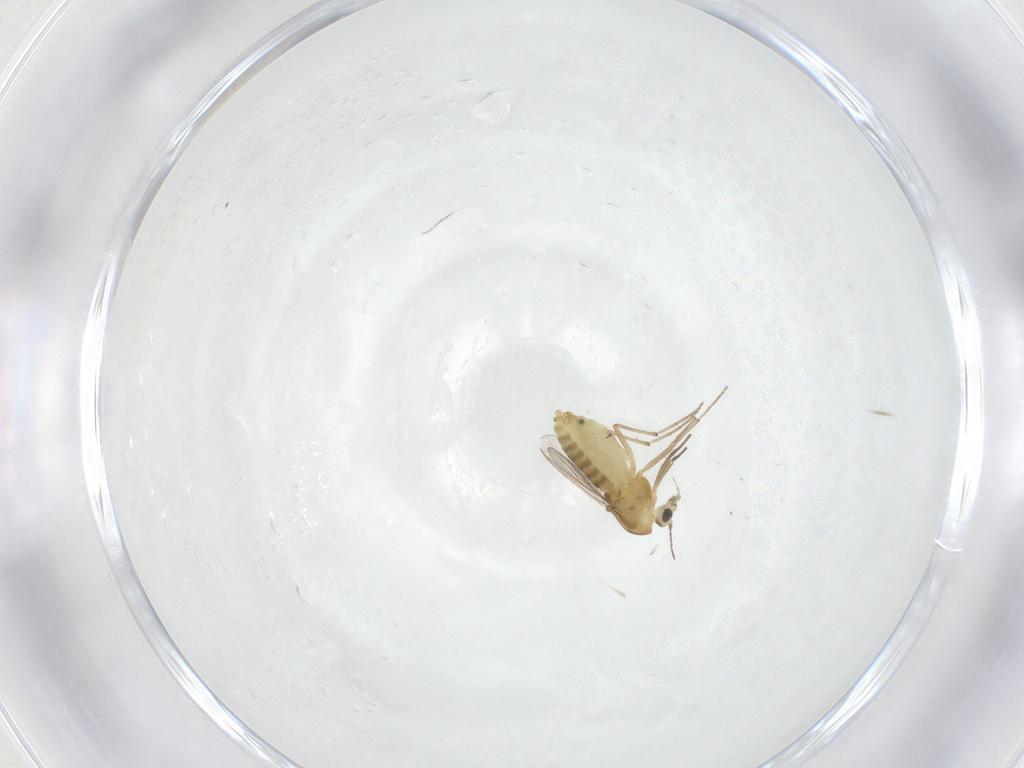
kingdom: Animalia
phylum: Arthropoda
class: Insecta
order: Diptera
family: Chironomidae
